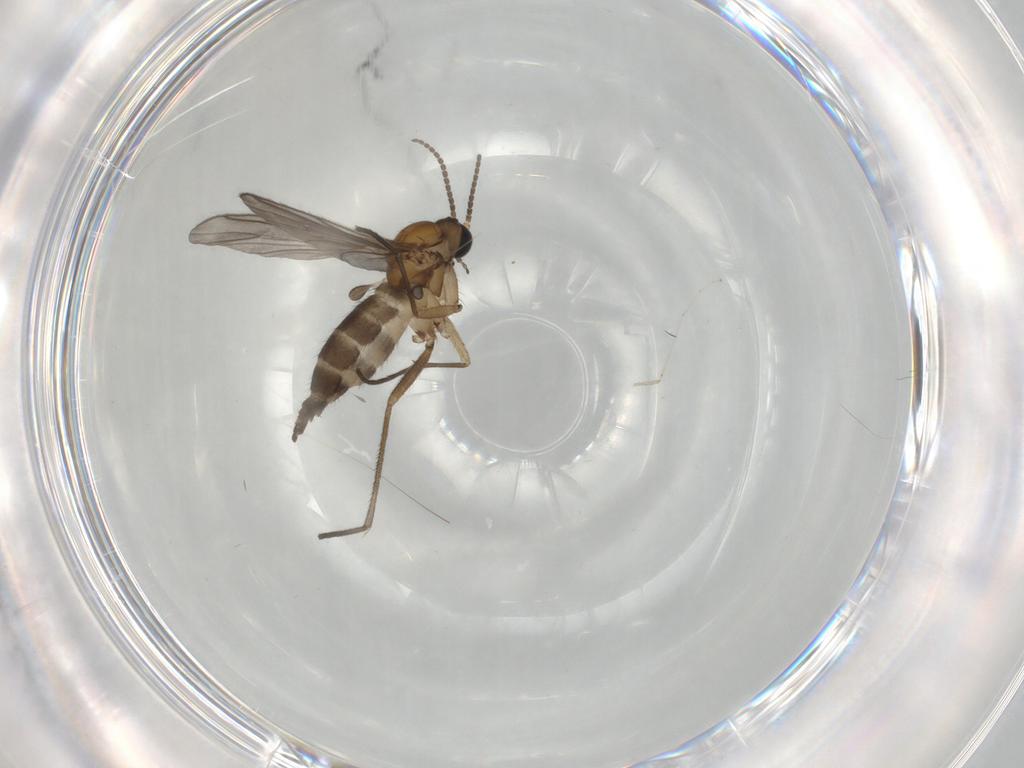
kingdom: Animalia
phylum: Arthropoda
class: Insecta
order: Diptera
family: Sciaridae
